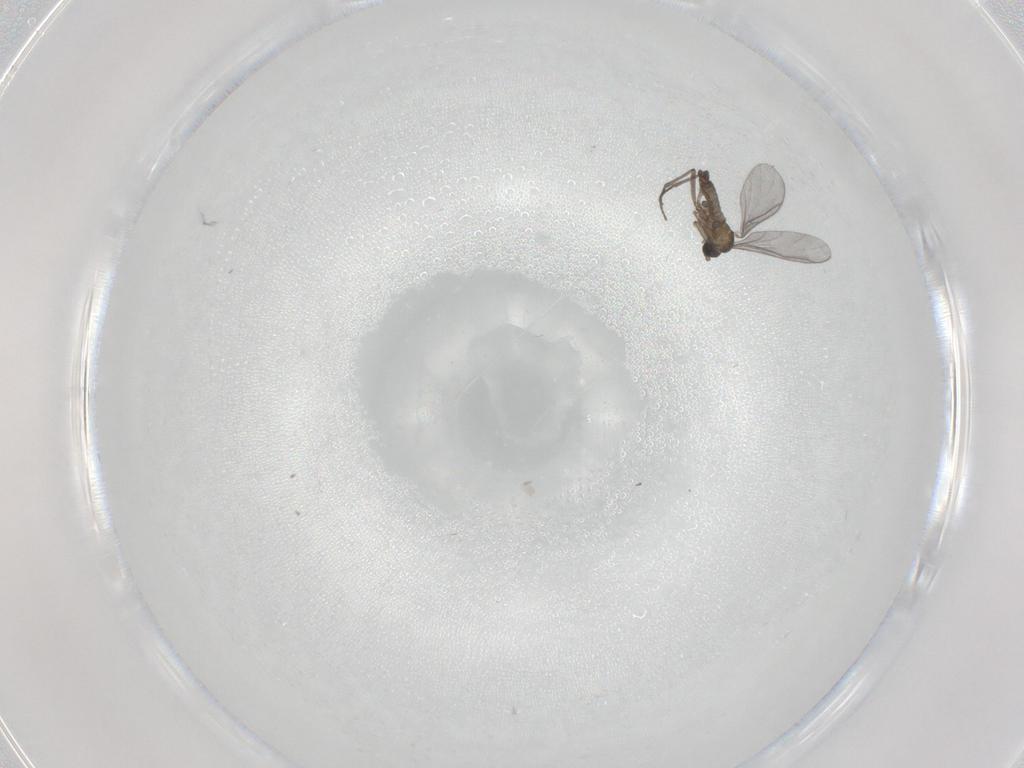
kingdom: Animalia
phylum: Arthropoda
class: Insecta
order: Diptera
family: Sciaridae
